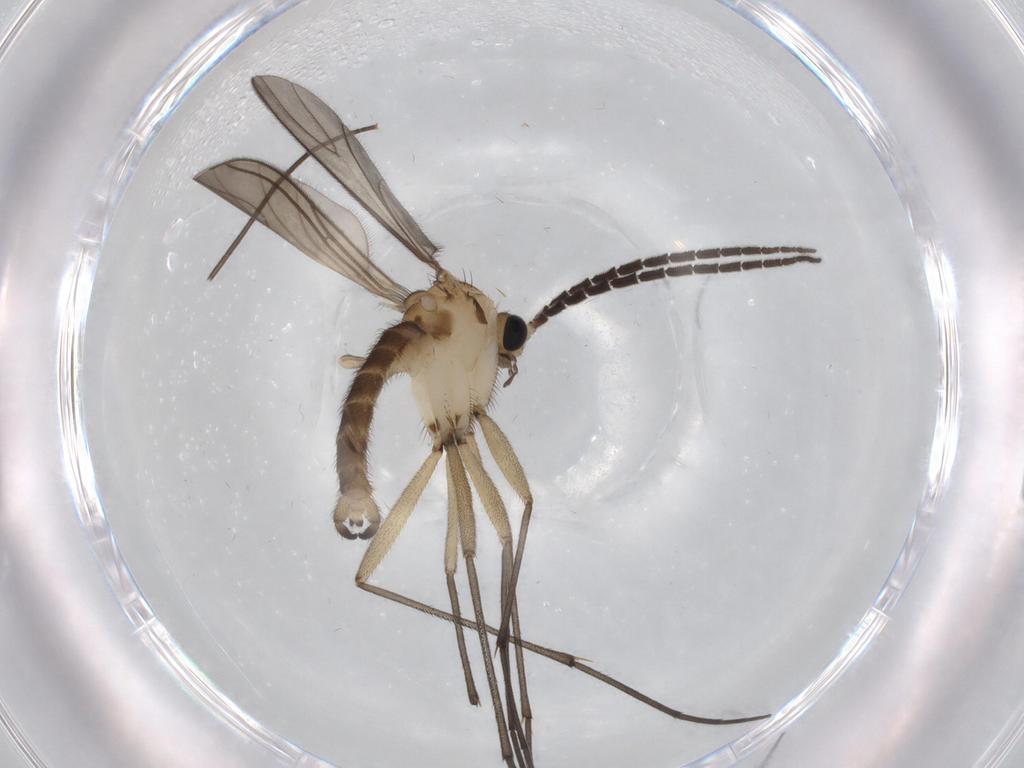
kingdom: Animalia
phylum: Arthropoda
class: Insecta
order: Diptera
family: Sciaridae
